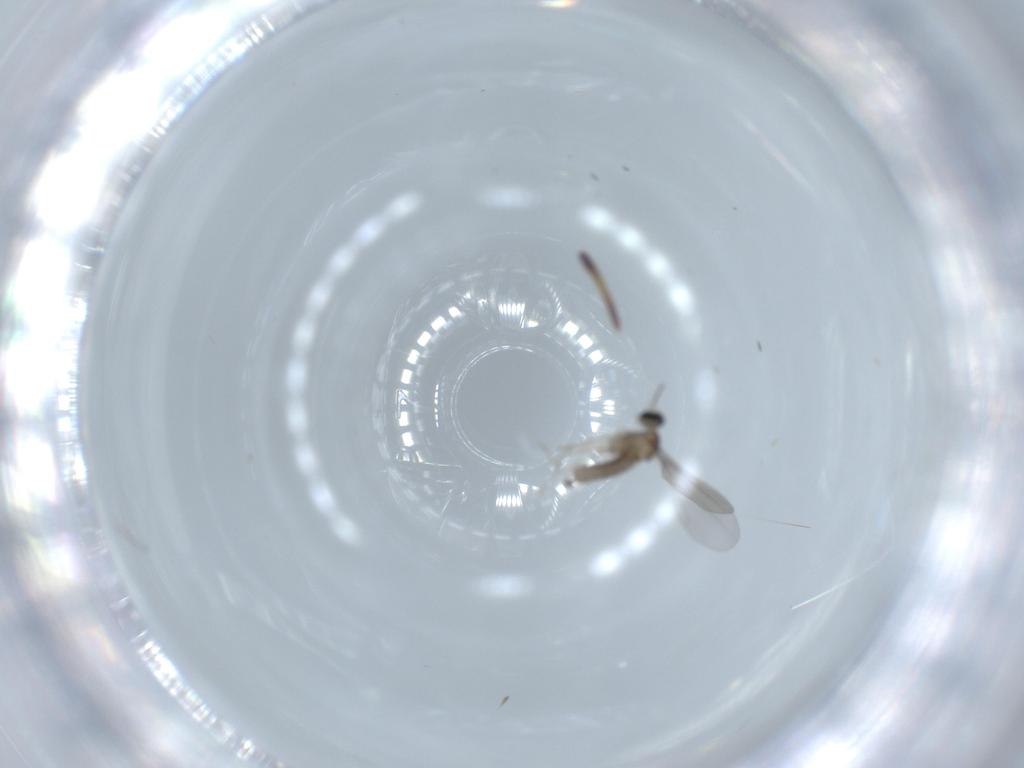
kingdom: Animalia
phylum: Arthropoda
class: Insecta
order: Diptera
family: Cecidomyiidae
